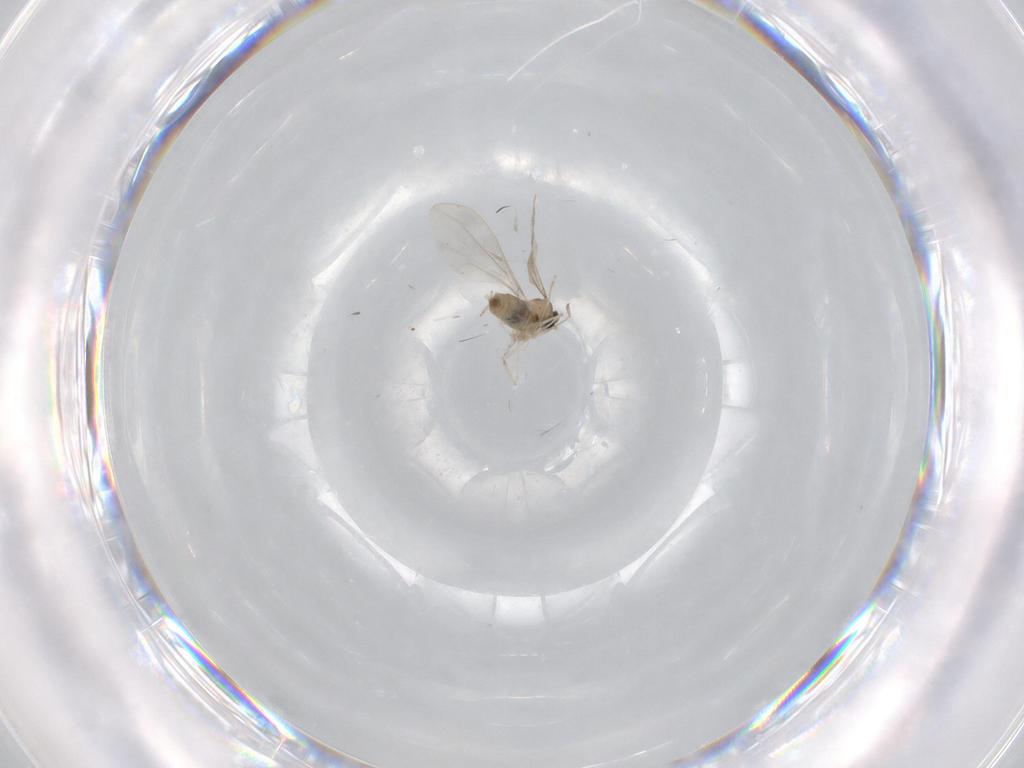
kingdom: Animalia
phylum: Arthropoda
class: Insecta
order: Diptera
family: Cecidomyiidae
